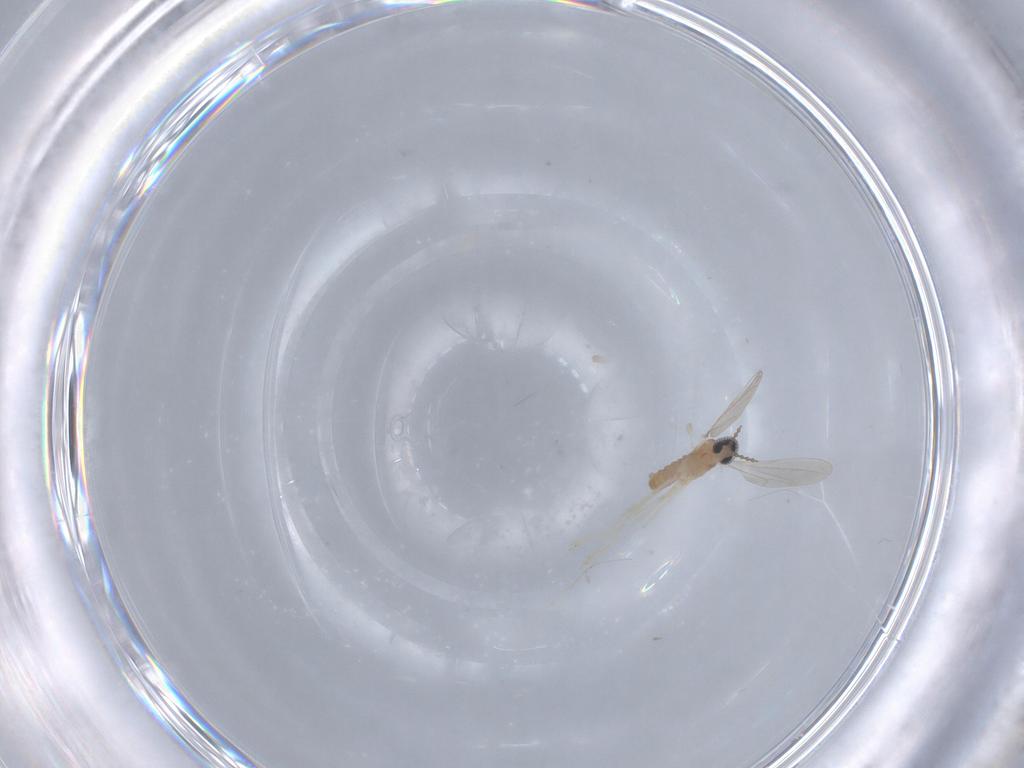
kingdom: Animalia
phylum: Arthropoda
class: Insecta
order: Diptera
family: Cecidomyiidae
